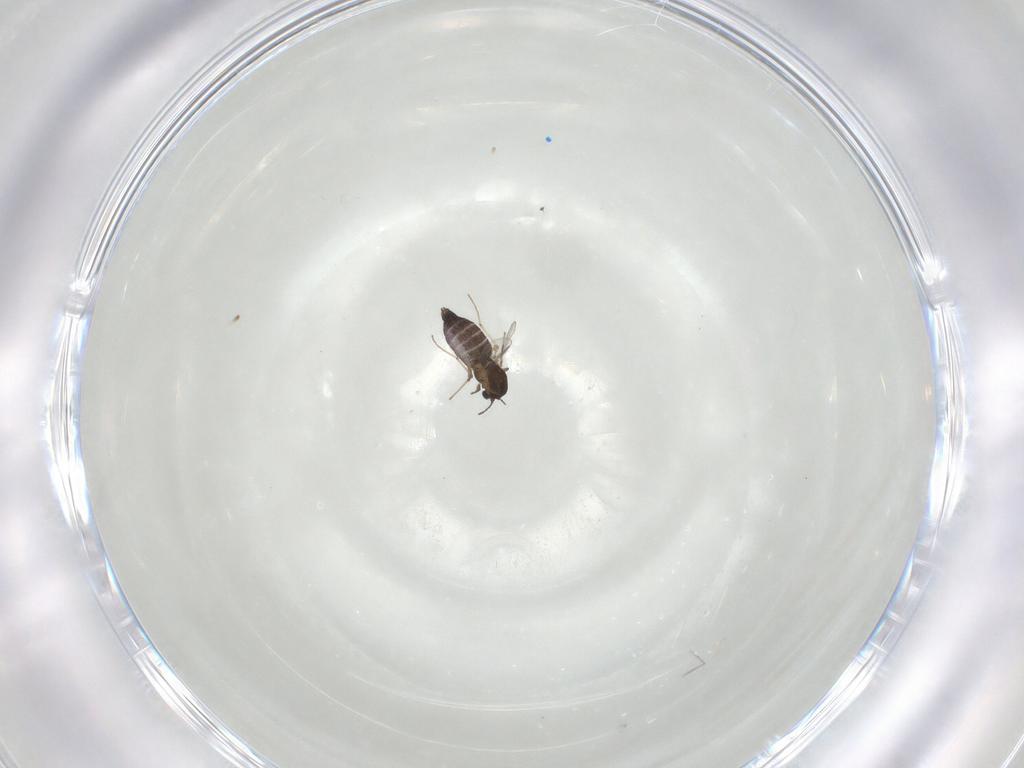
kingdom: Animalia
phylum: Arthropoda
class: Insecta
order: Diptera
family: Chironomidae
